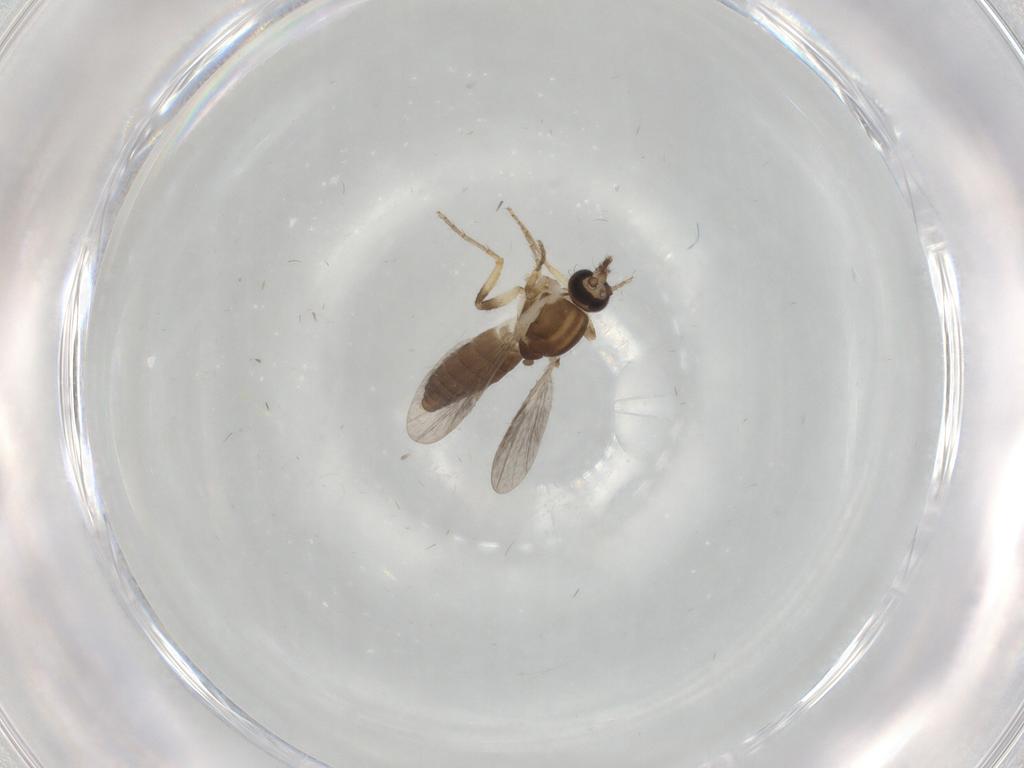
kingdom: Animalia
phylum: Arthropoda
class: Insecta
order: Diptera
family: Ceratopogonidae
